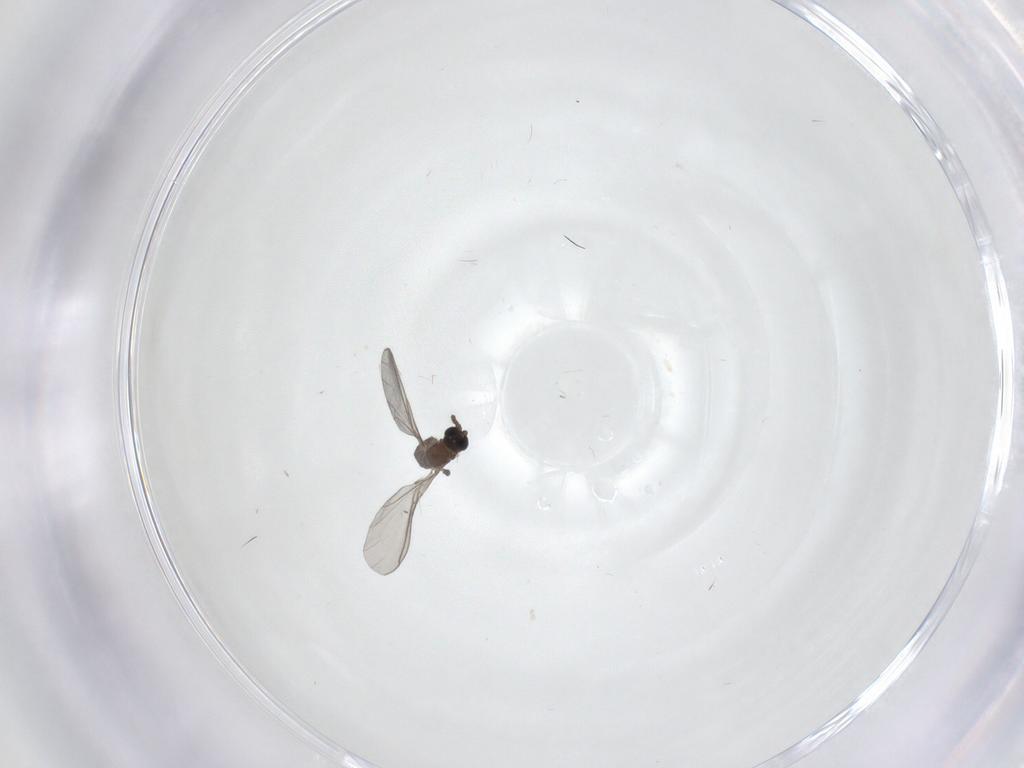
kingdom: Animalia
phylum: Arthropoda
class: Insecta
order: Diptera
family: Sciaridae
